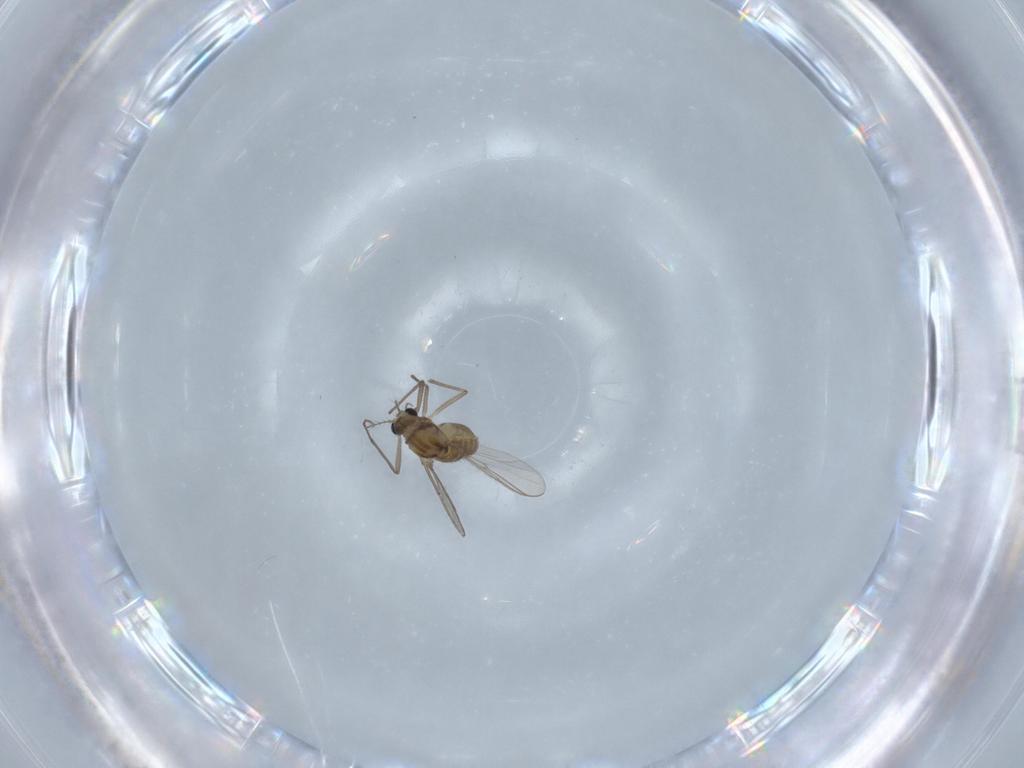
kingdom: Animalia
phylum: Arthropoda
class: Insecta
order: Diptera
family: Chironomidae
